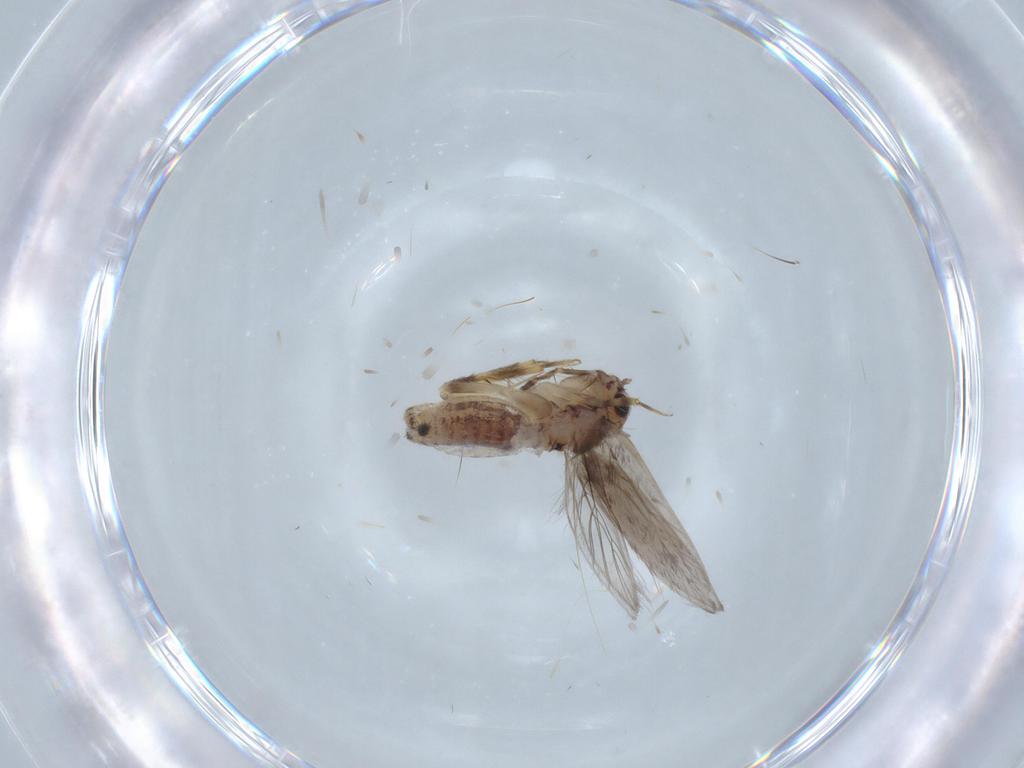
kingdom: Animalia
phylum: Arthropoda
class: Insecta
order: Psocodea
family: Lepidopsocidae
